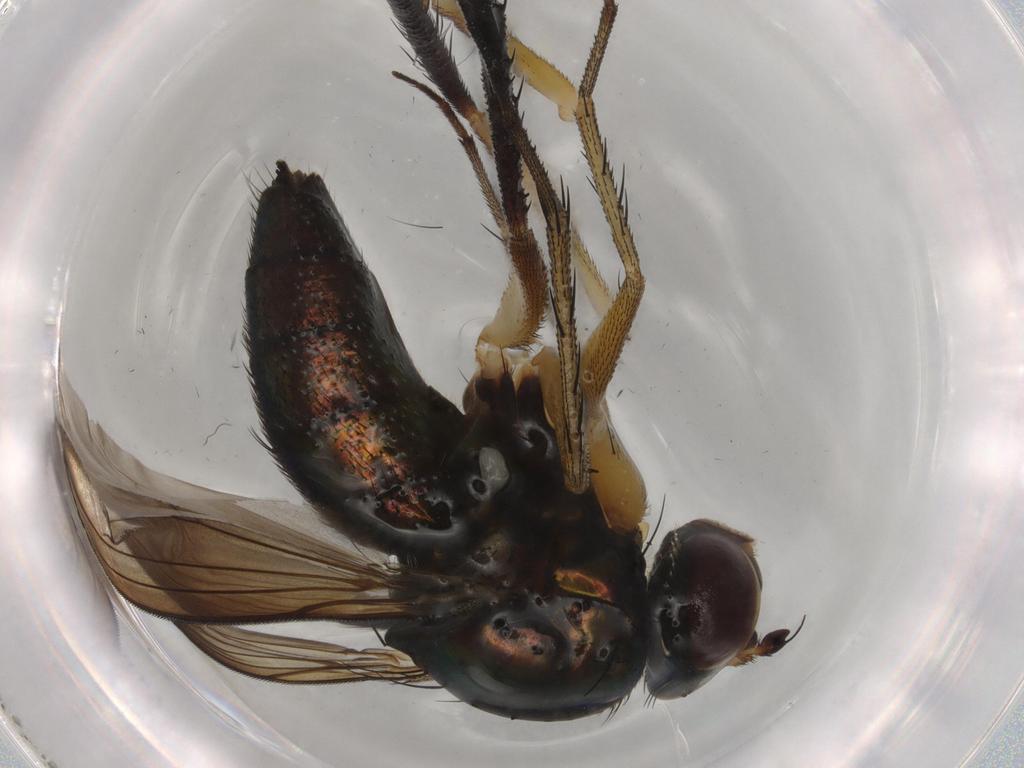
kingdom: Animalia
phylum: Arthropoda
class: Insecta
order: Diptera
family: Dolichopodidae
